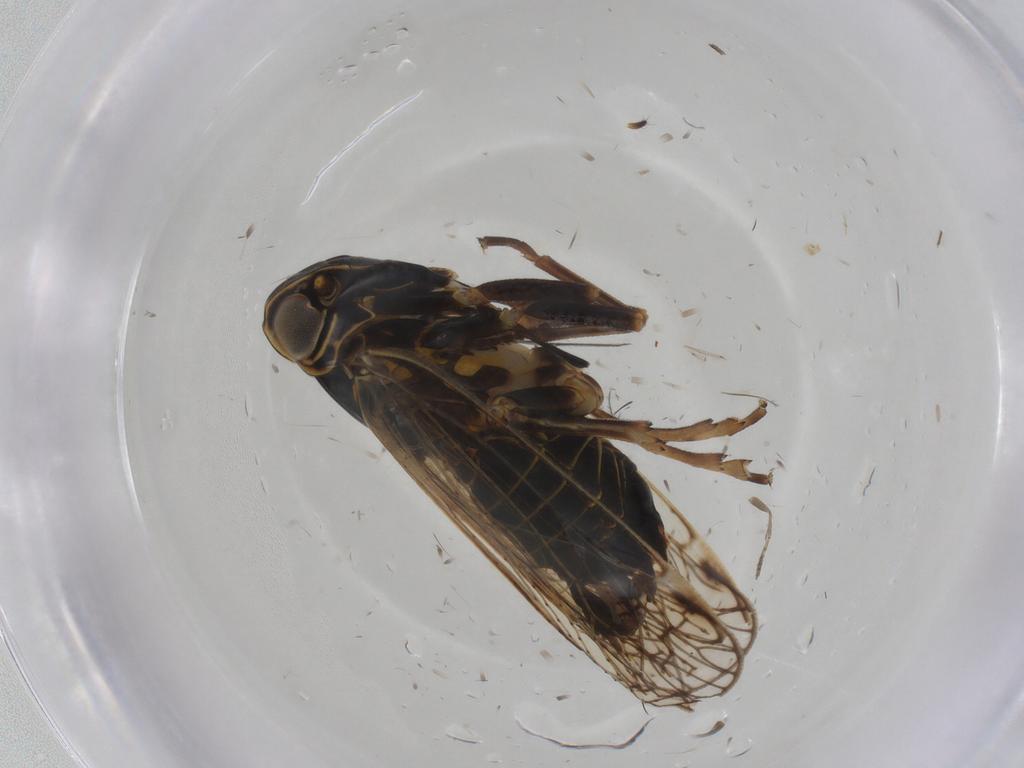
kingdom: Animalia
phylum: Arthropoda
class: Insecta
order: Hemiptera
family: Cixiidae
